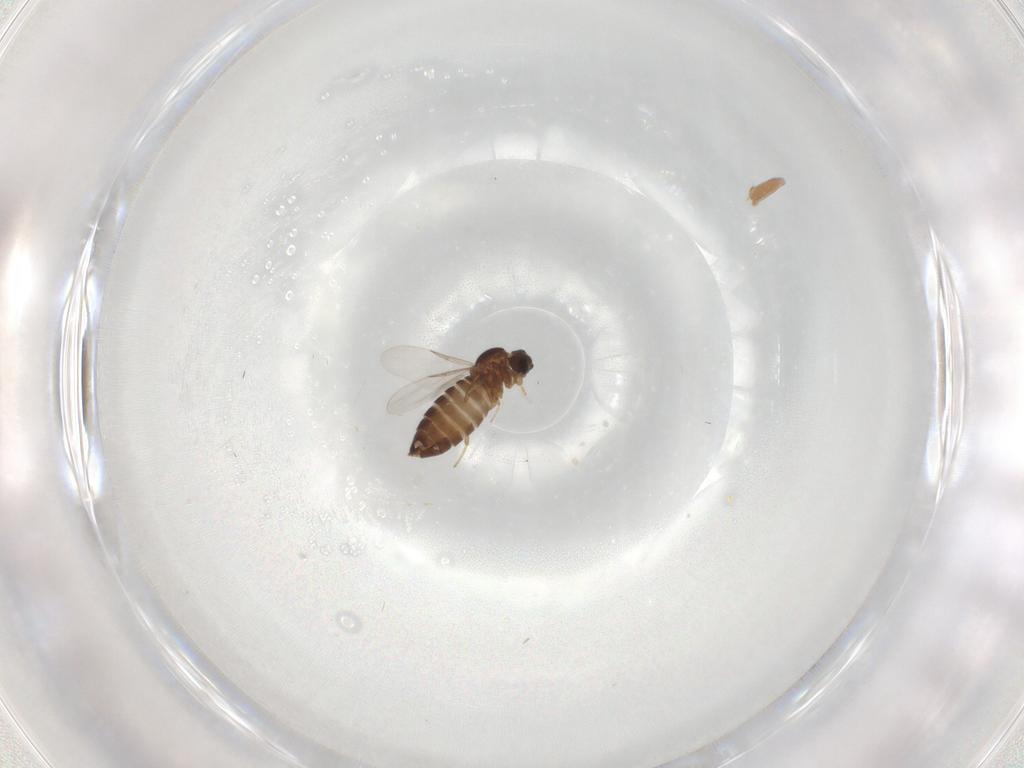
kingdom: Animalia
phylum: Arthropoda
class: Insecta
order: Diptera
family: Scatopsidae
